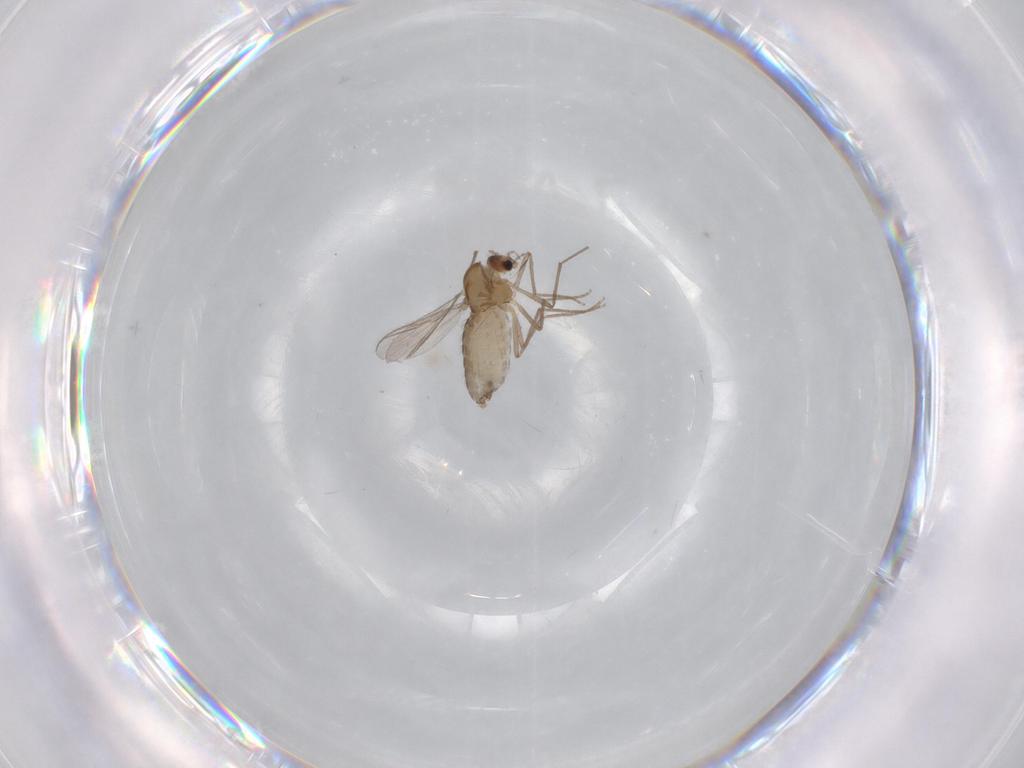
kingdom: Animalia
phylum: Arthropoda
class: Insecta
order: Diptera
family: Chironomidae
